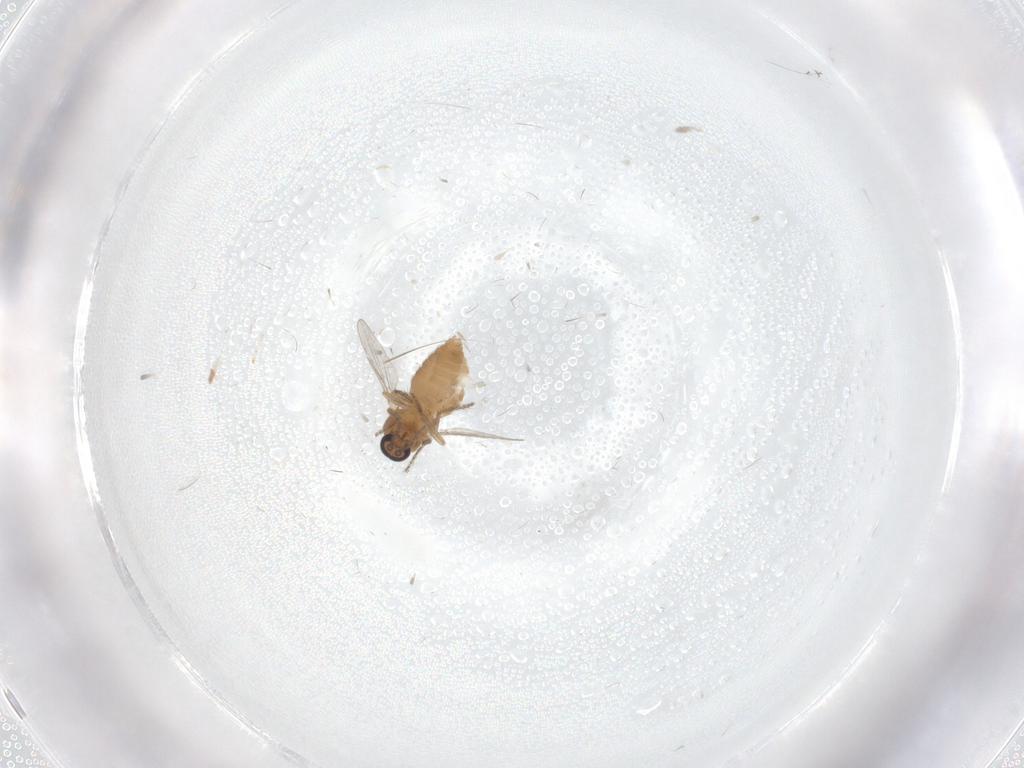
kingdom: Animalia
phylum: Arthropoda
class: Insecta
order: Diptera
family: Ceratopogonidae
